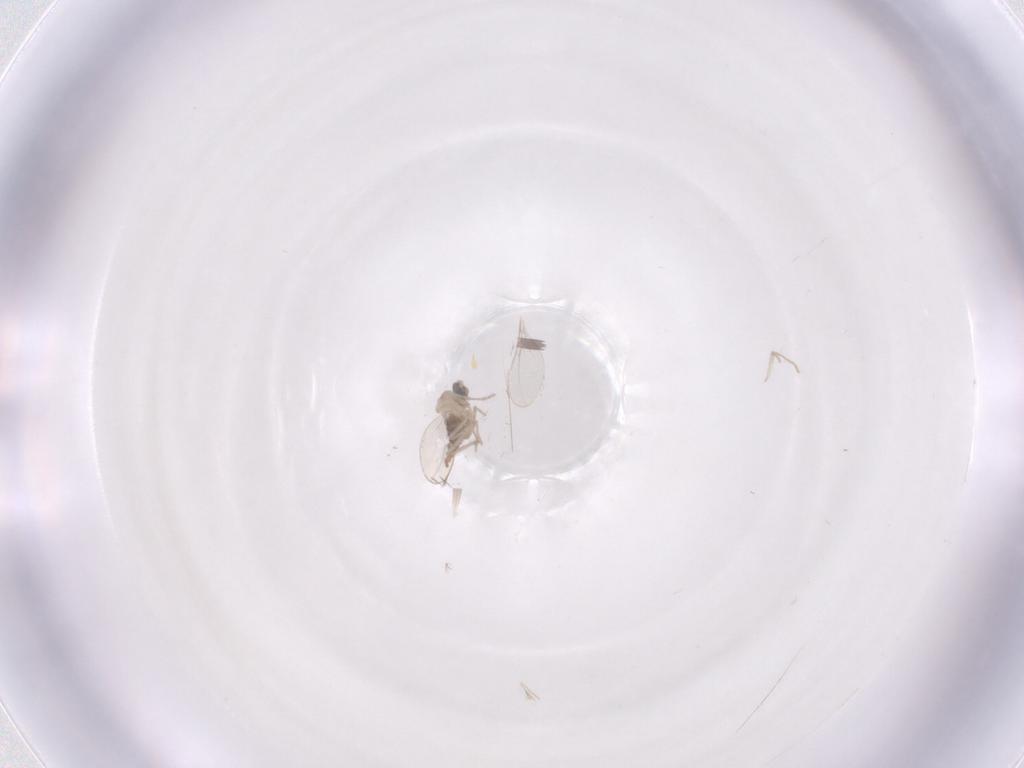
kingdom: Animalia
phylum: Arthropoda
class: Insecta
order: Diptera
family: Cecidomyiidae
